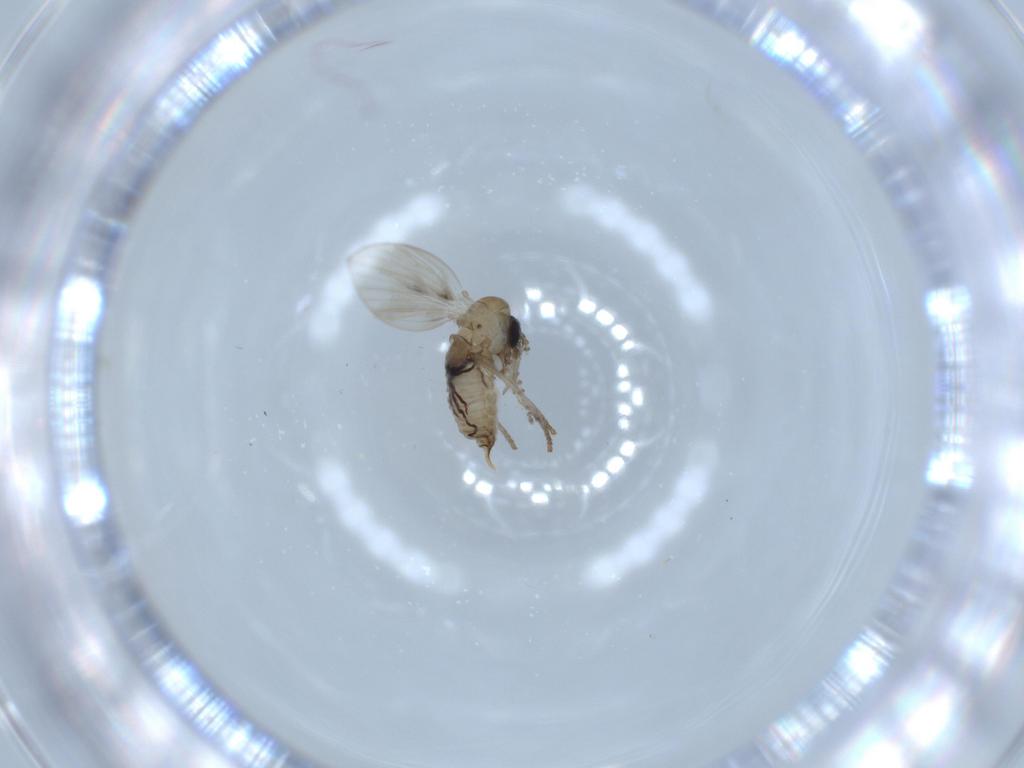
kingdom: Animalia
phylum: Arthropoda
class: Insecta
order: Diptera
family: Psychodidae
